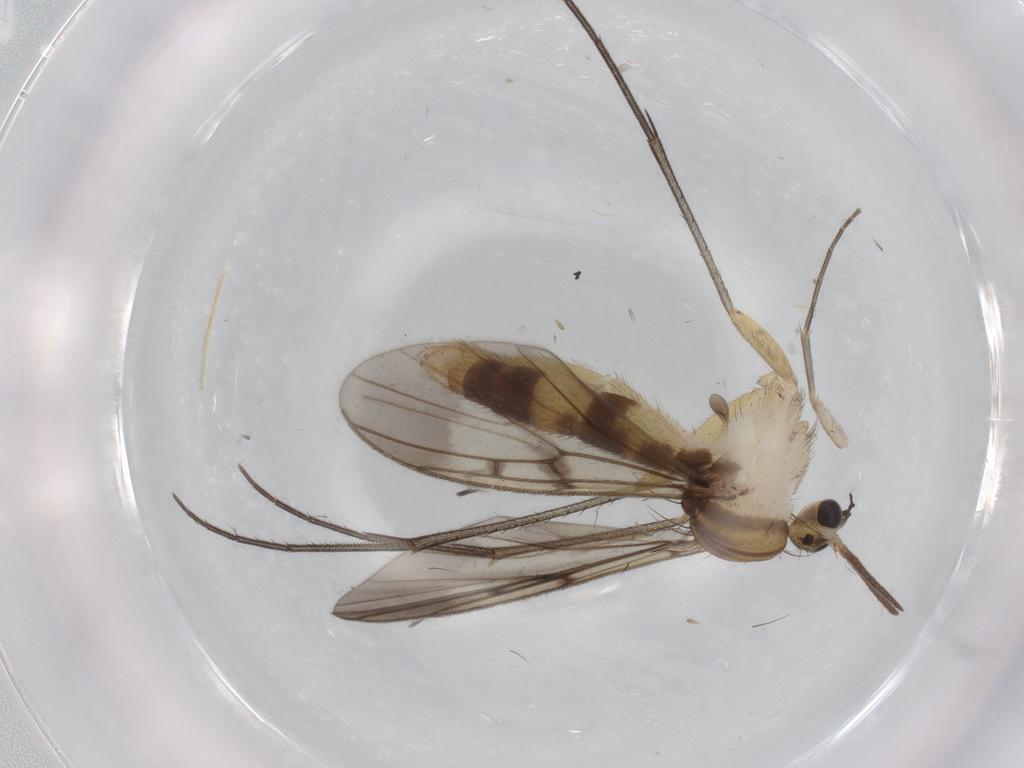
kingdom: Animalia
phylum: Arthropoda
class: Insecta
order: Diptera
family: Mycetophilidae
